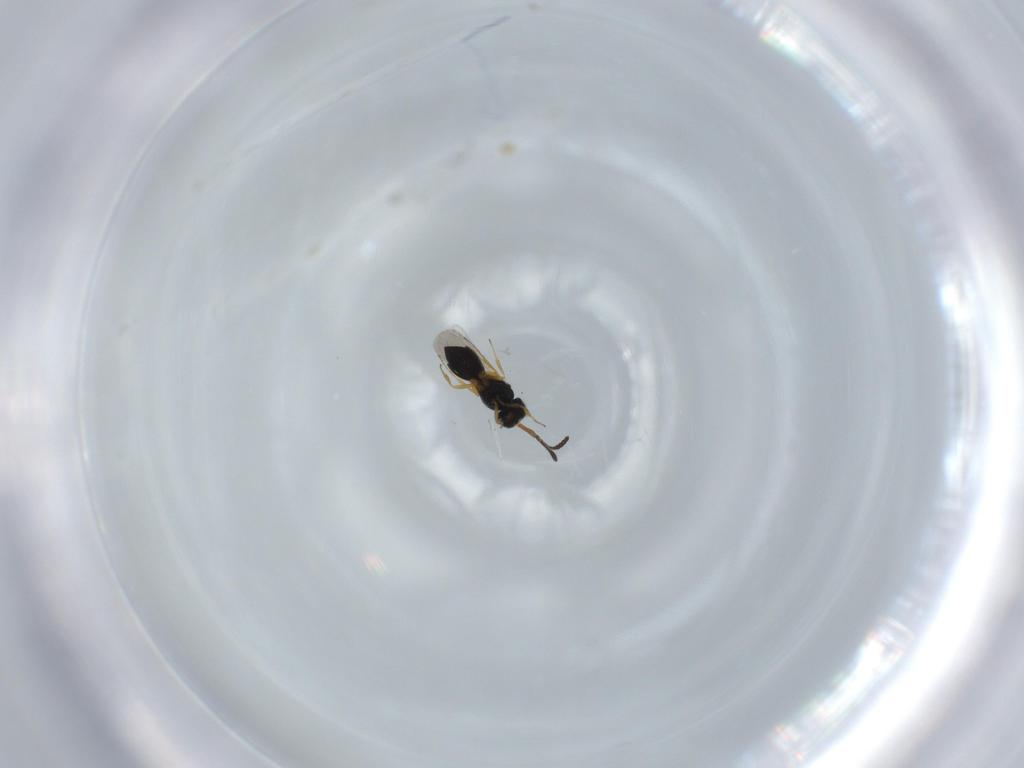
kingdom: Animalia
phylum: Arthropoda
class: Insecta
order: Hymenoptera
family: Scelionidae
